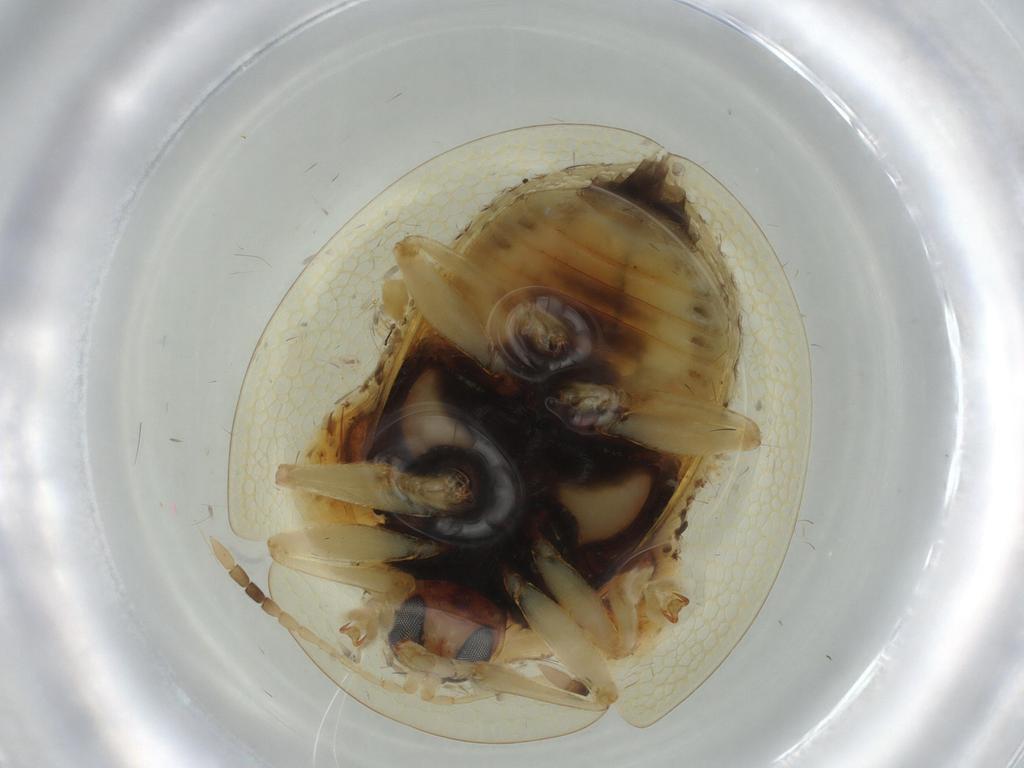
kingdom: Animalia
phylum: Arthropoda
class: Insecta
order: Coleoptera
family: Chrysomelidae
